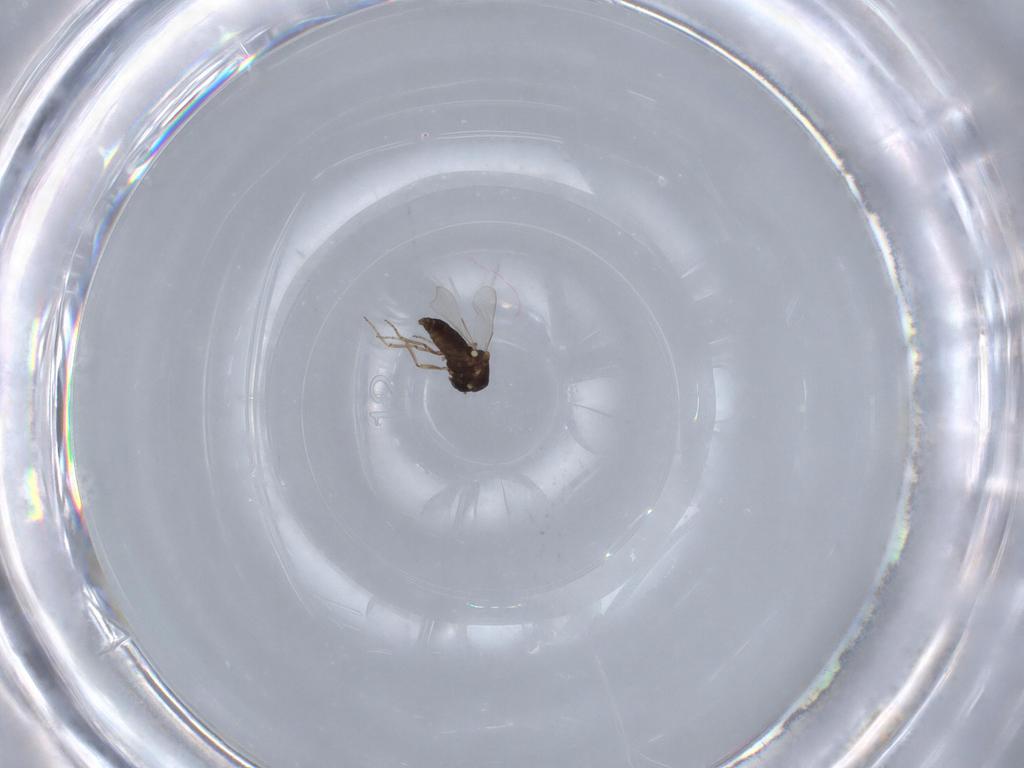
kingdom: Animalia
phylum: Arthropoda
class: Insecta
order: Diptera
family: Ceratopogonidae
